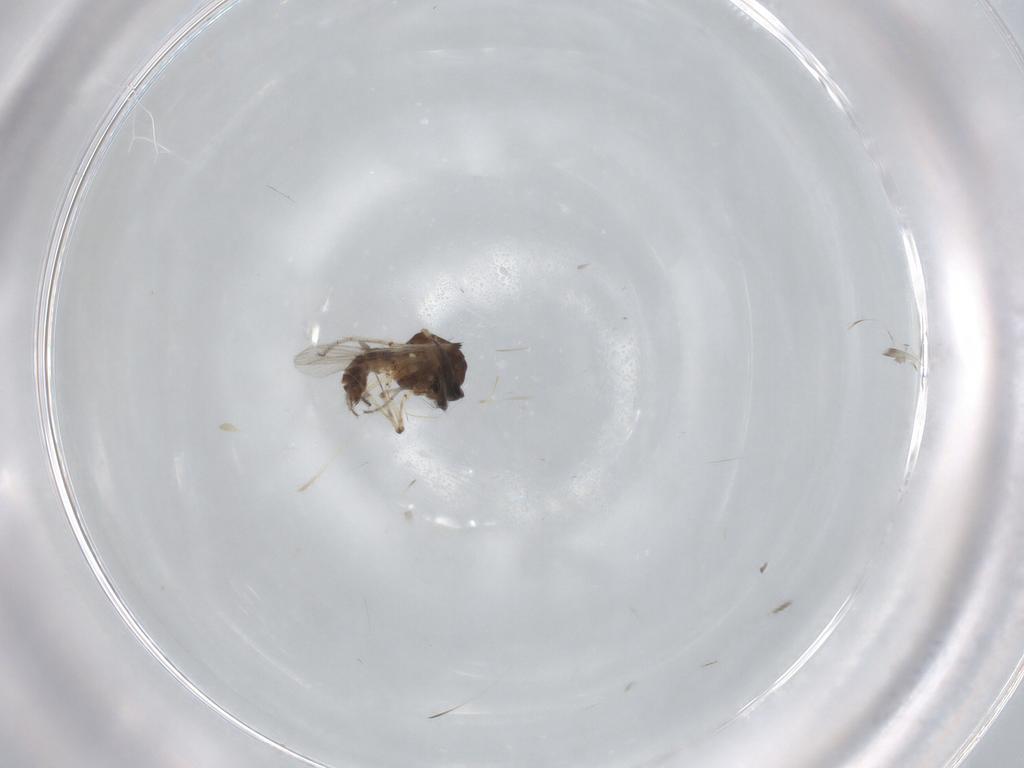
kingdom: Animalia
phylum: Arthropoda
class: Insecta
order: Diptera
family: Ceratopogonidae
